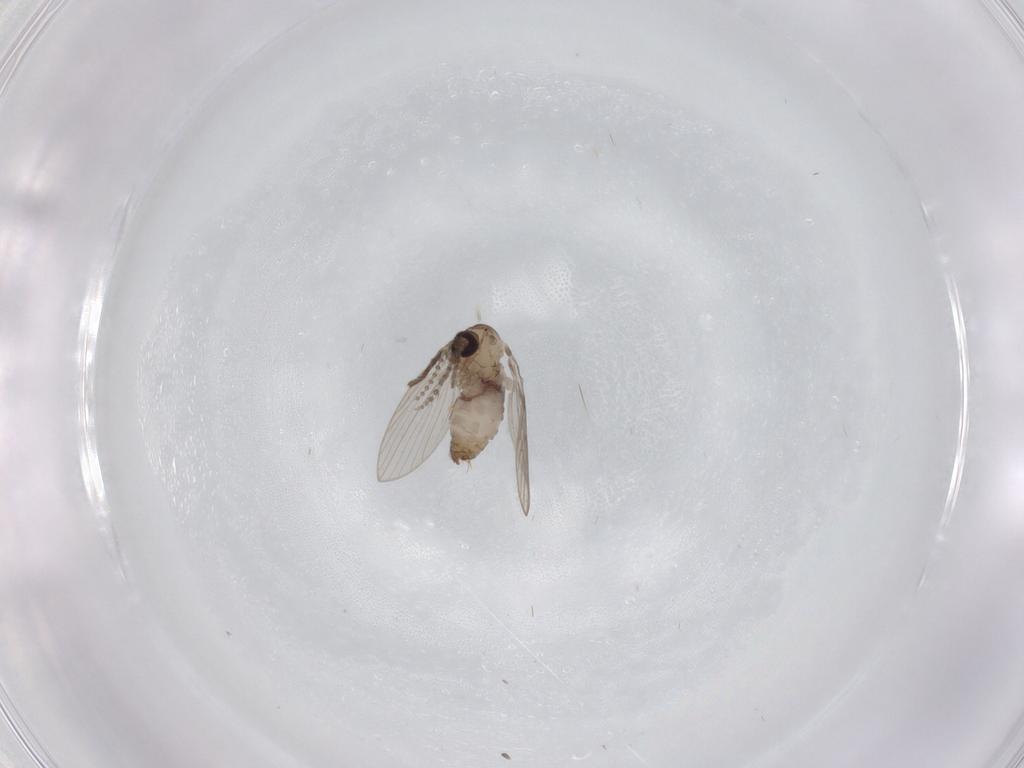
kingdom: Animalia
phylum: Arthropoda
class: Insecta
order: Diptera
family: Psychodidae
